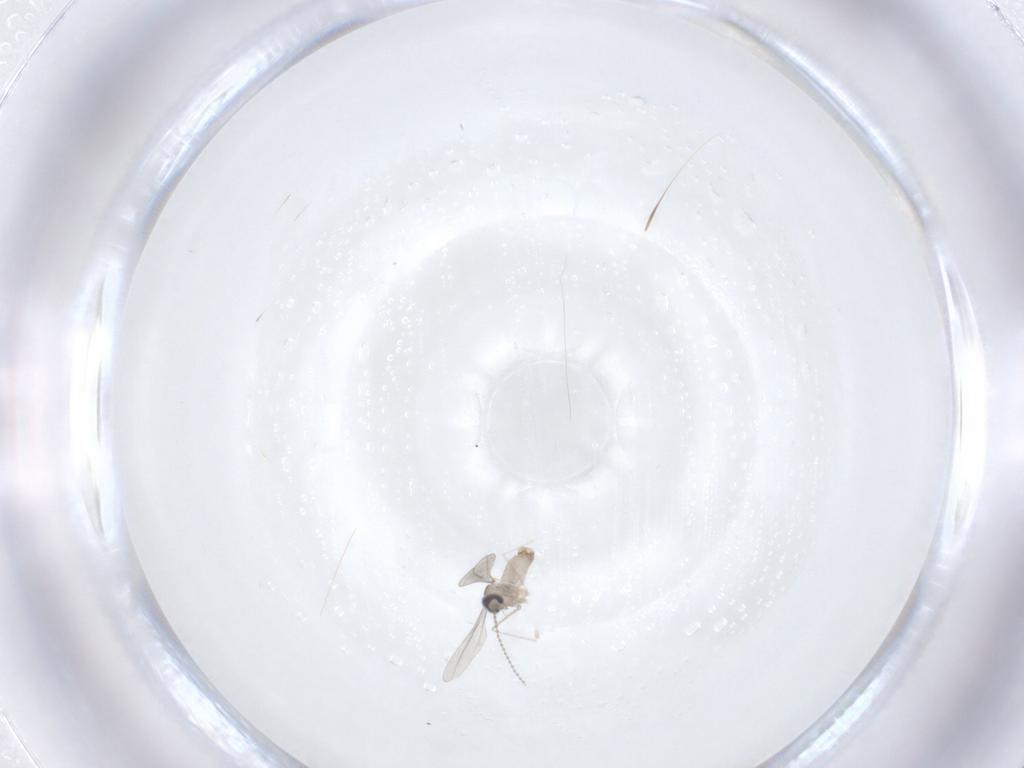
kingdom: Animalia
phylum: Arthropoda
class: Insecta
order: Diptera
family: Cecidomyiidae
